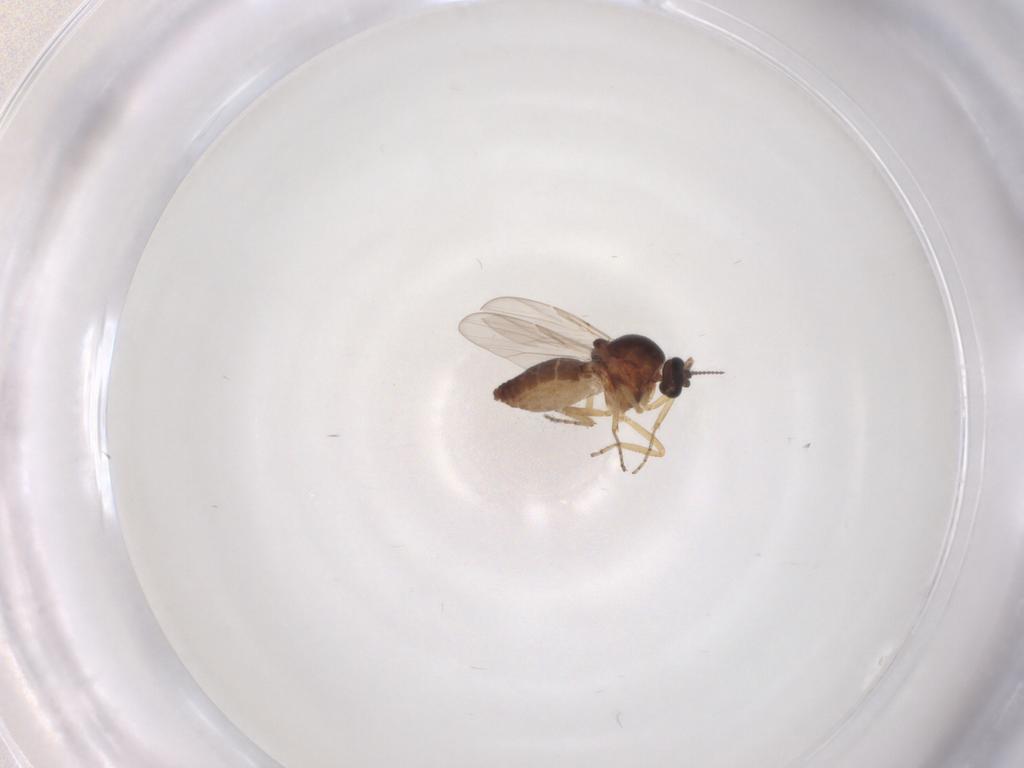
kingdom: Animalia
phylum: Arthropoda
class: Insecta
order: Diptera
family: Ceratopogonidae
